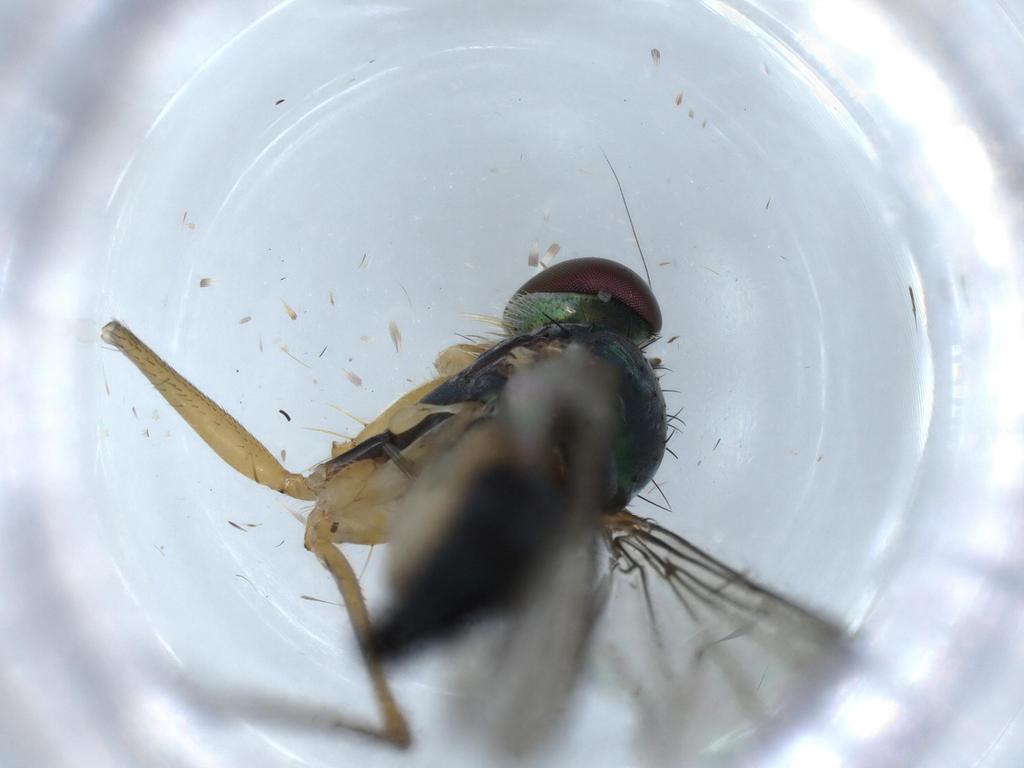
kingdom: Animalia
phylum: Arthropoda
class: Insecta
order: Diptera
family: Dolichopodidae
